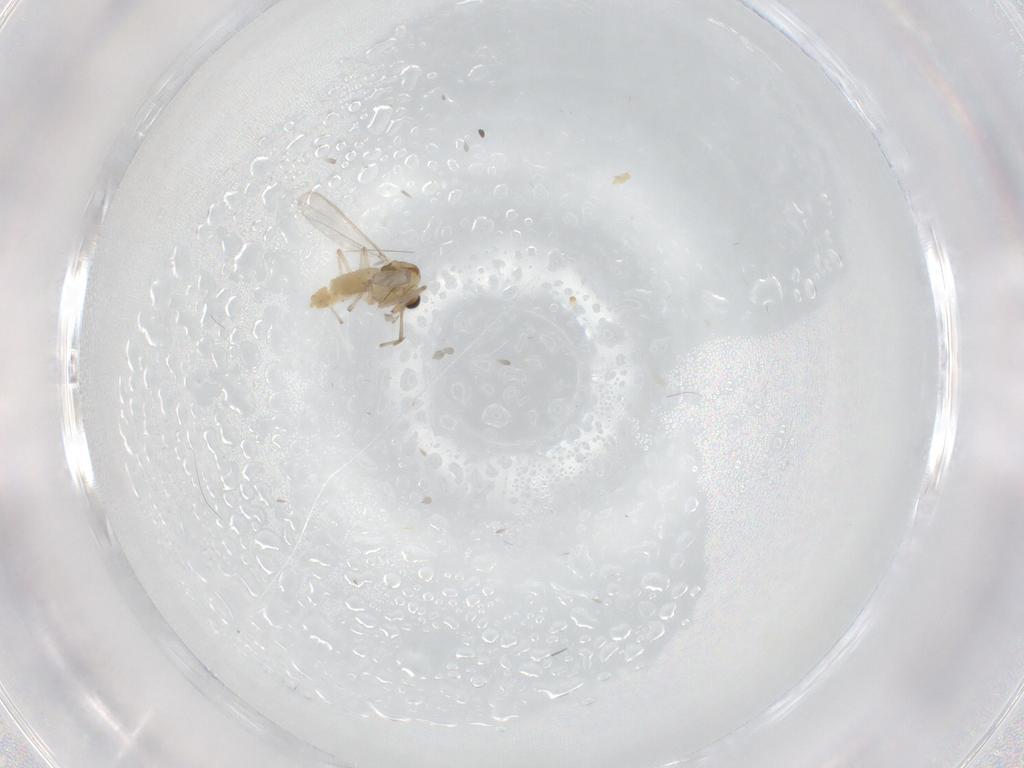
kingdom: Animalia
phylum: Arthropoda
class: Insecta
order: Diptera
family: Chironomidae
